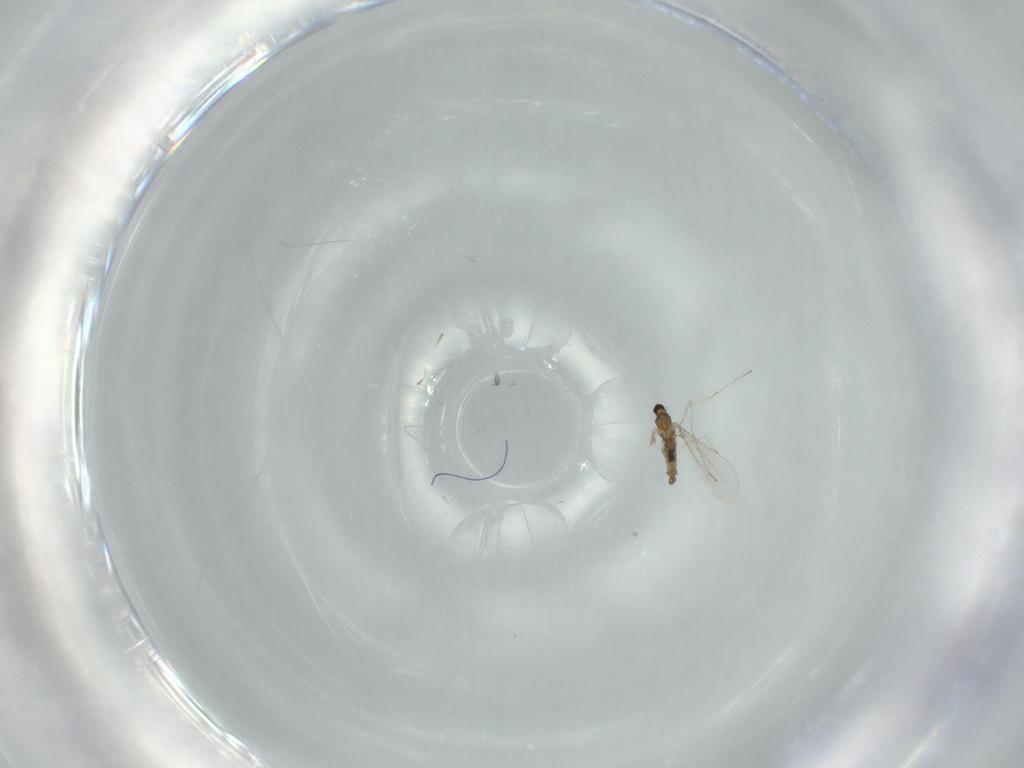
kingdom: Animalia
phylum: Arthropoda
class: Insecta
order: Diptera
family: Cecidomyiidae
